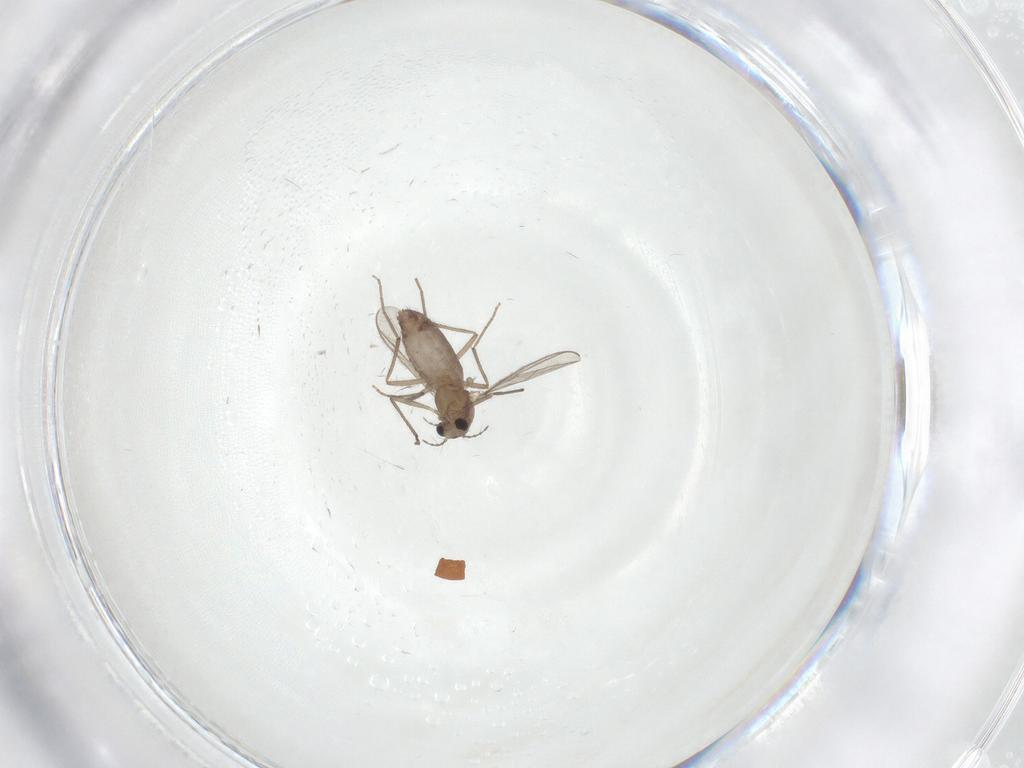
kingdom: Animalia
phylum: Arthropoda
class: Insecta
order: Diptera
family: Chironomidae
